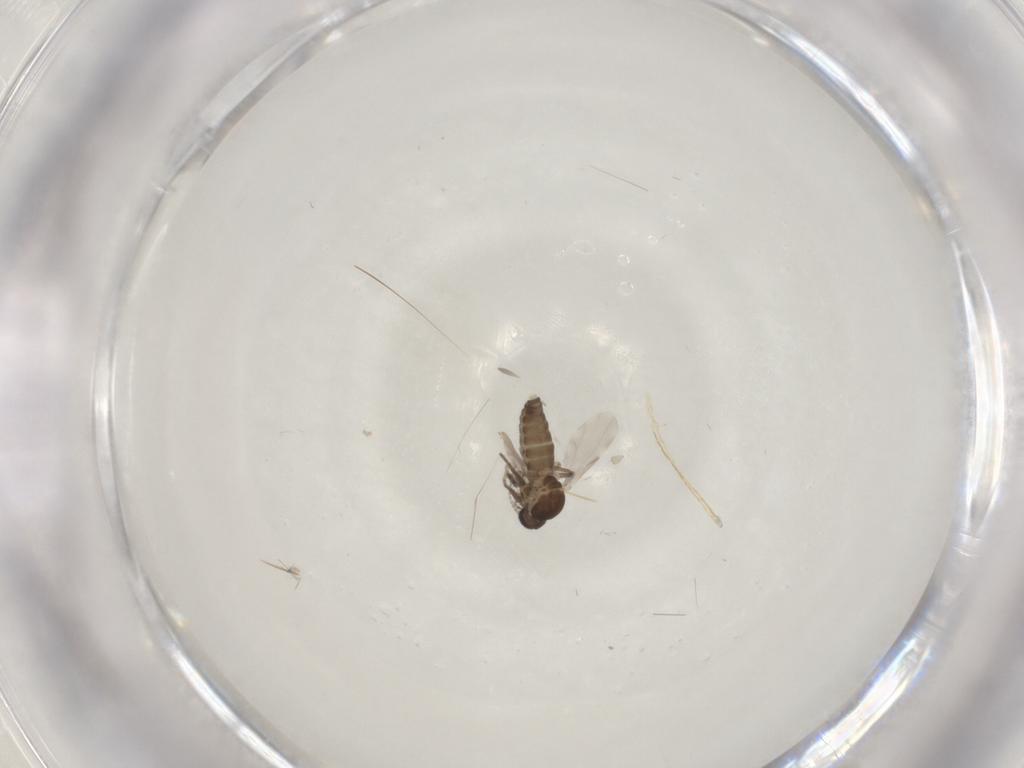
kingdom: Animalia
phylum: Arthropoda
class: Insecta
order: Diptera
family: Ceratopogonidae
